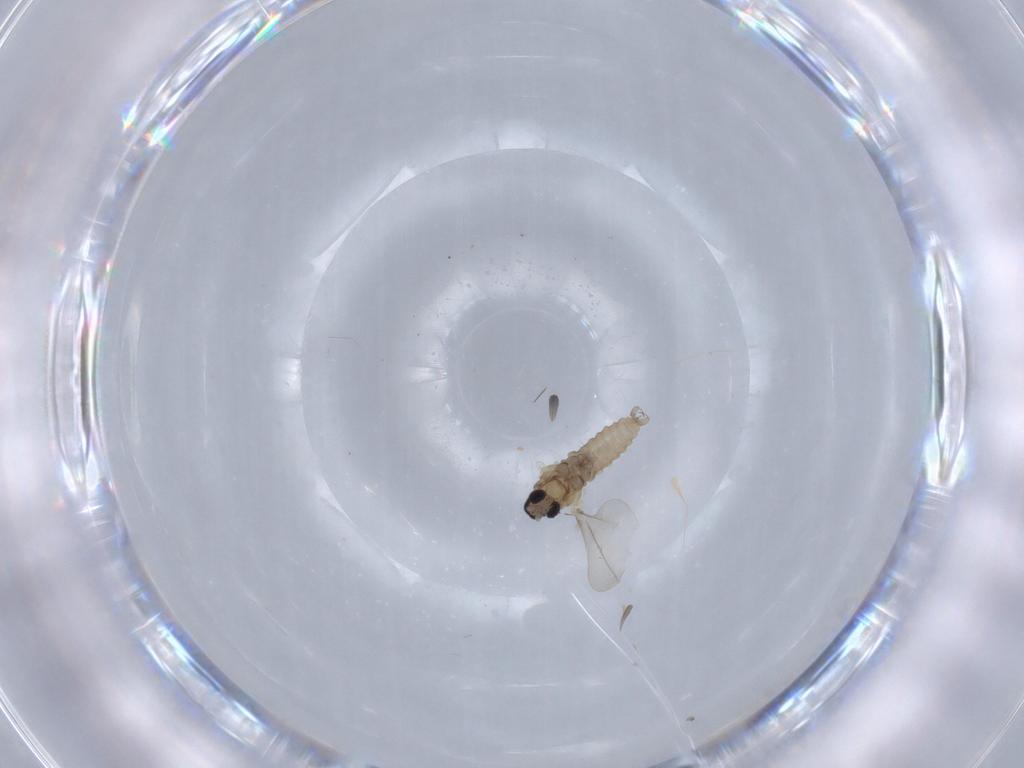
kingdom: Animalia
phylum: Arthropoda
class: Insecta
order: Diptera
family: Cecidomyiidae
